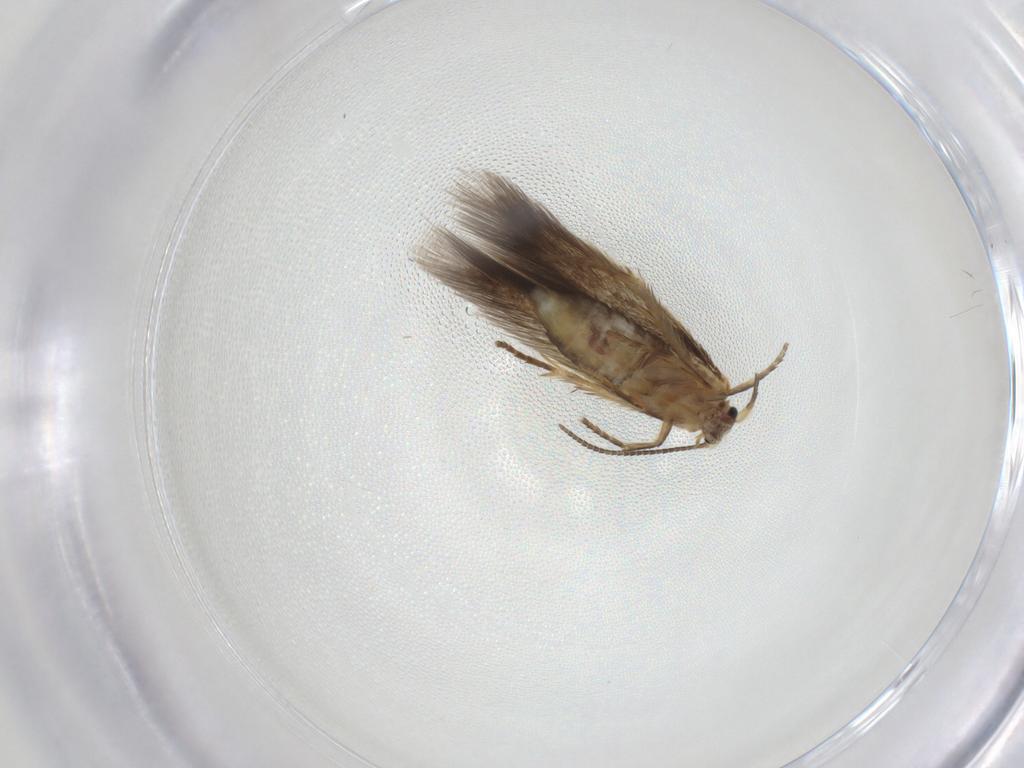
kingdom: Animalia
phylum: Arthropoda
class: Insecta
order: Lepidoptera
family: Nepticulidae
